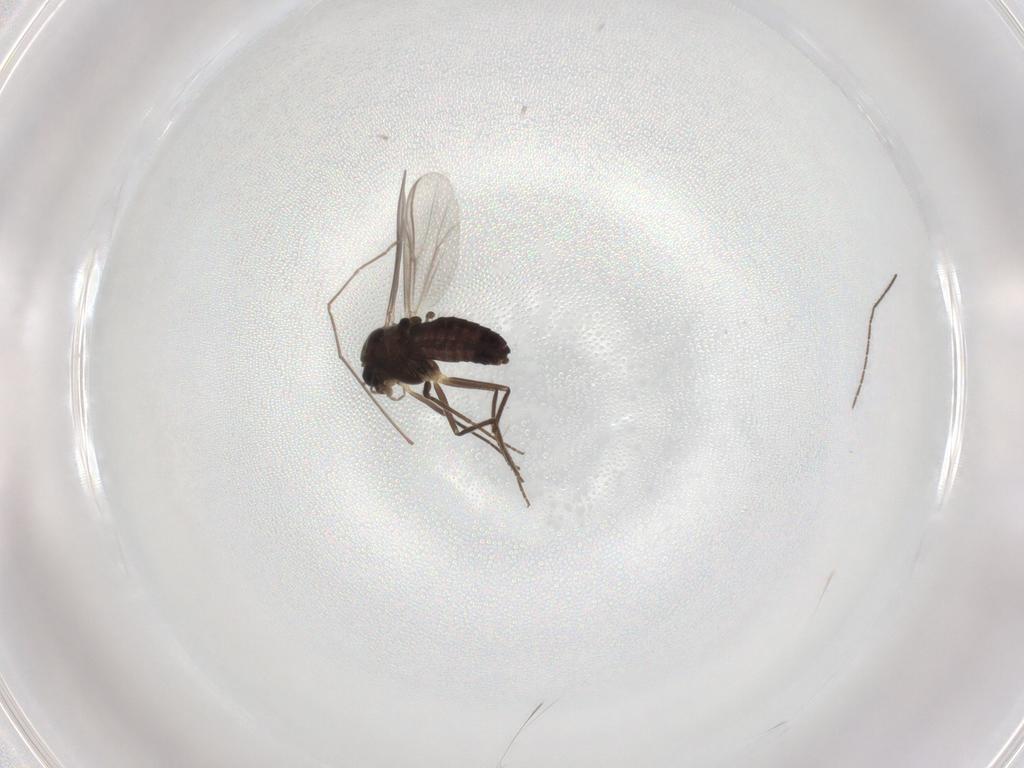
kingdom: Animalia
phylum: Arthropoda
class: Insecta
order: Diptera
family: Chironomidae
